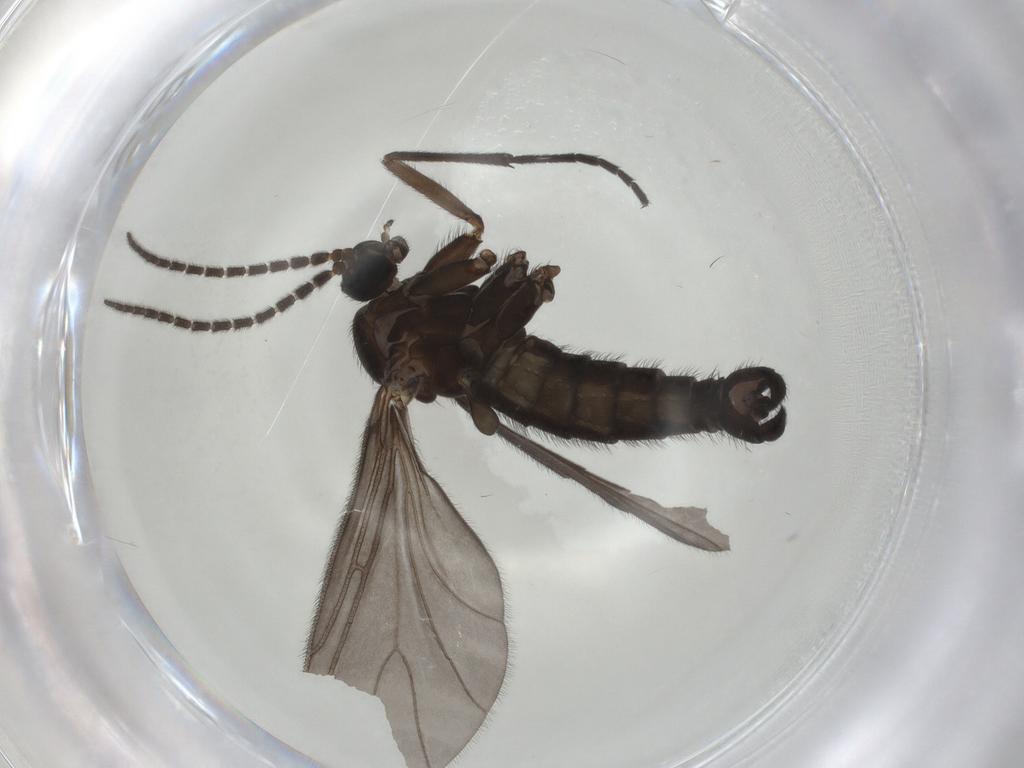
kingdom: Animalia
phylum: Arthropoda
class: Insecta
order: Diptera
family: Sciaridae
